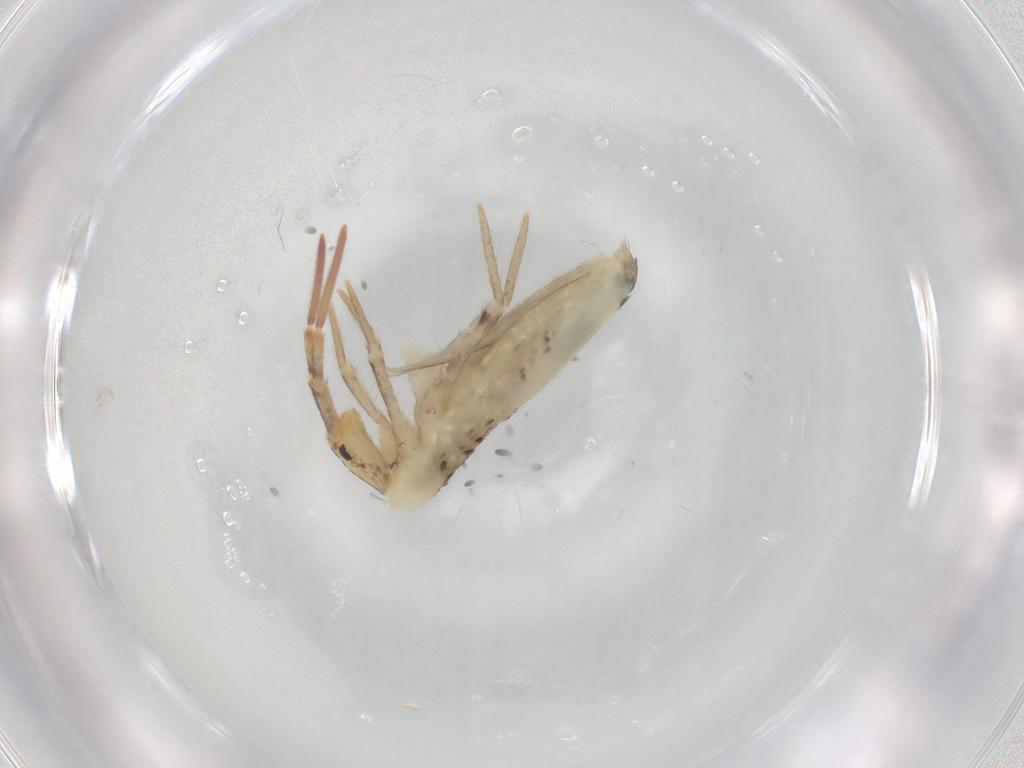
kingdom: Animalia
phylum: Arthropoda
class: Collembola
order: Poduromorpha
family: Hypogastruridae
